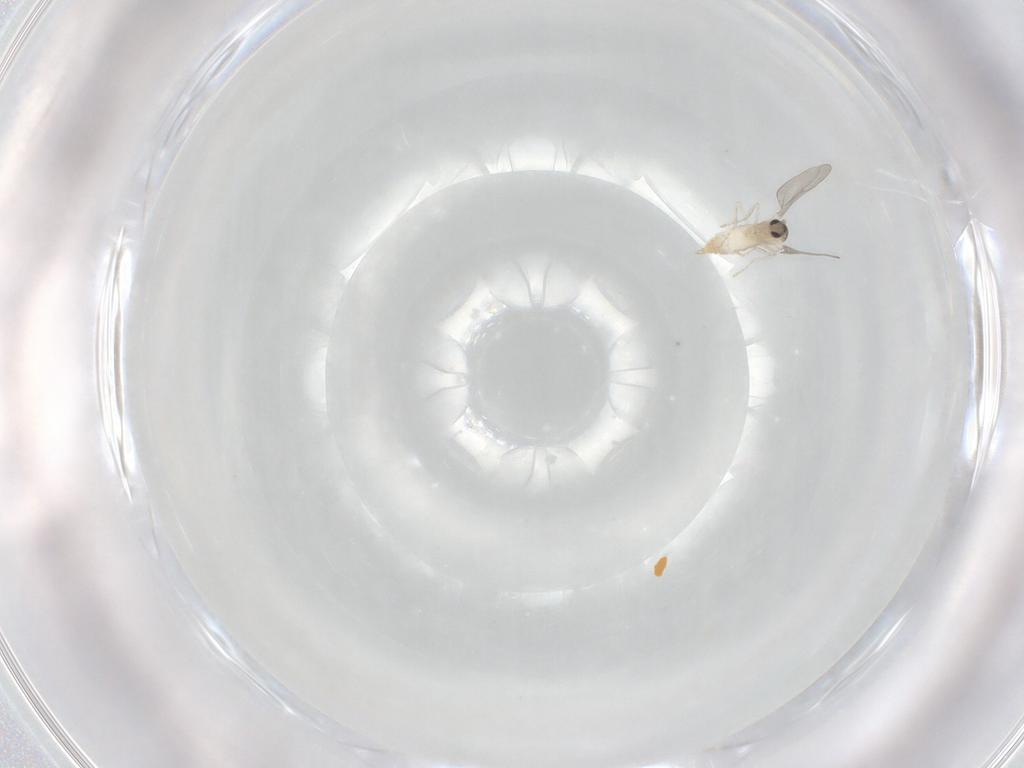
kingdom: Animalia
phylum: Arthropoda
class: Insecta
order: Diptera
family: Cecidomyiidae
